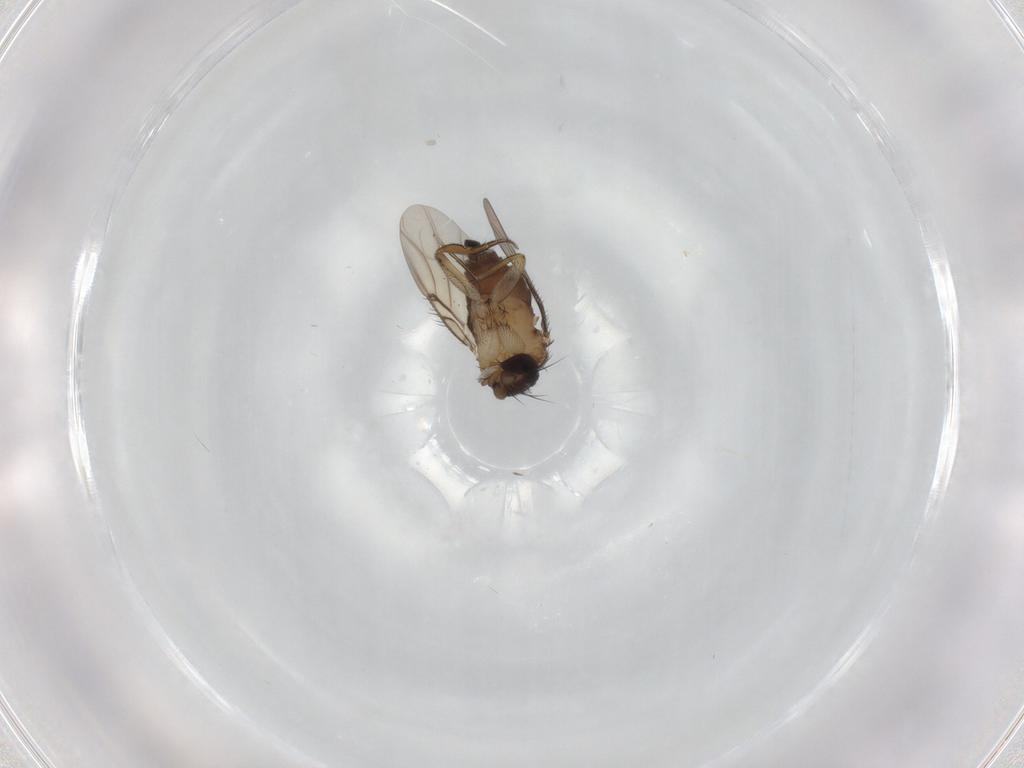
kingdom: Animalia
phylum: Arthropoda
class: Insecta
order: Diptera
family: Phoridae
